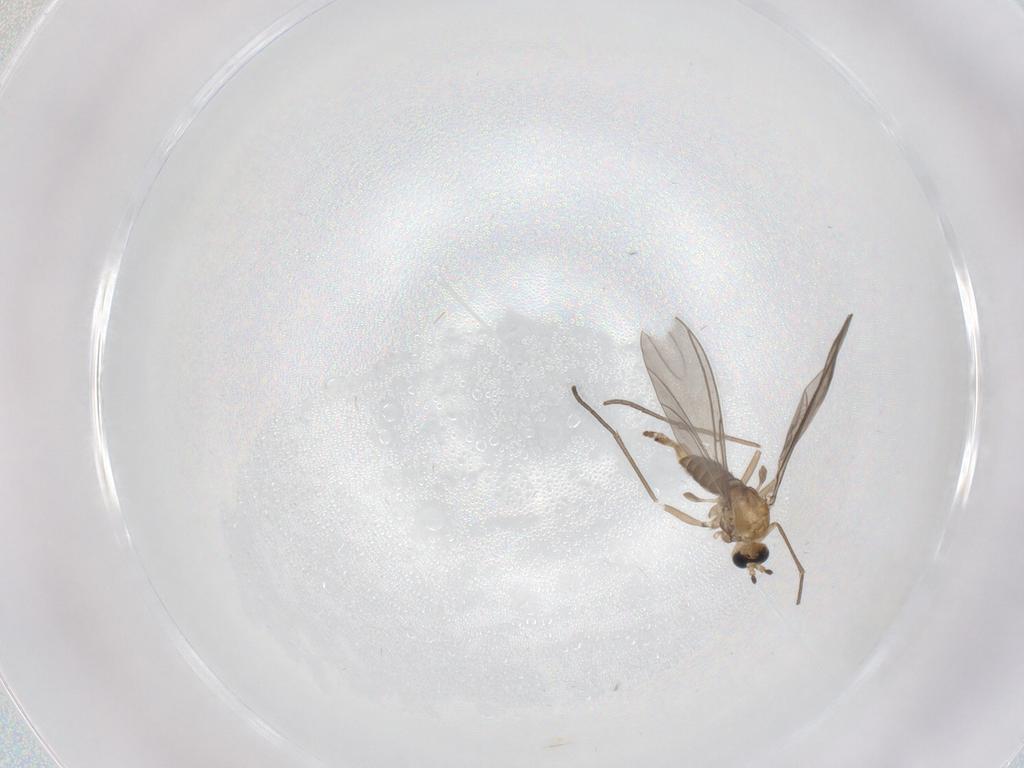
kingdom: Animalia
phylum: Arthropoda
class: Insecta
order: Diptera
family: Sciaridae
